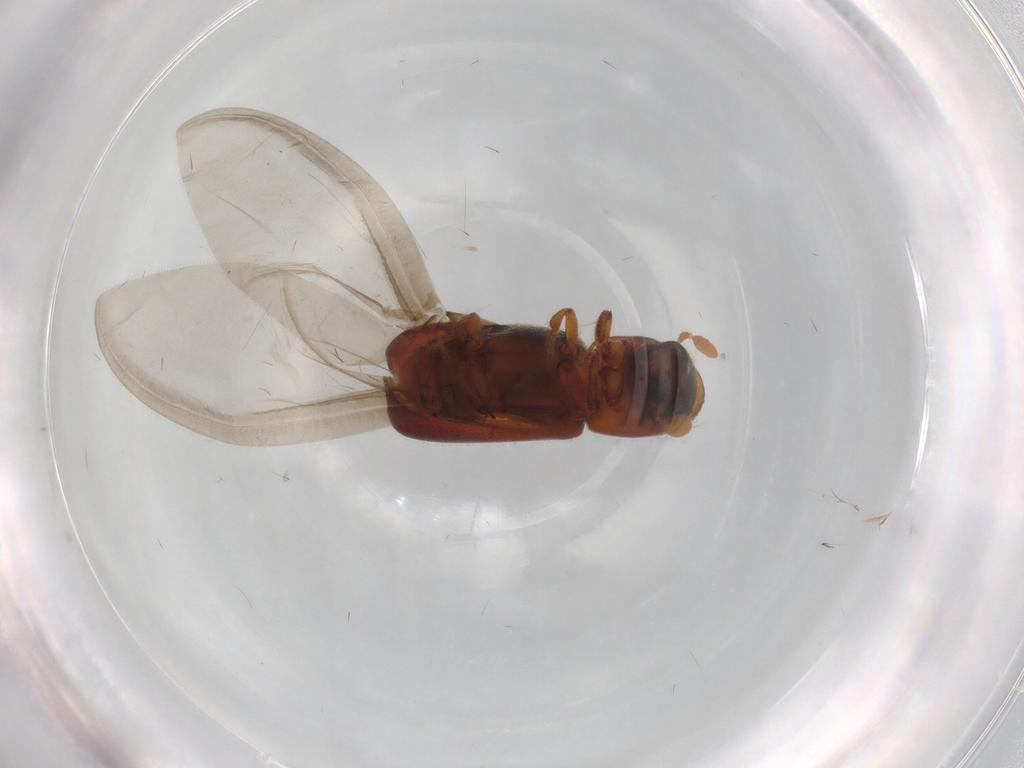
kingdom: Animalia
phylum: Arthropoda
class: Insecta
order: Coleoptera
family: Curculionidae
